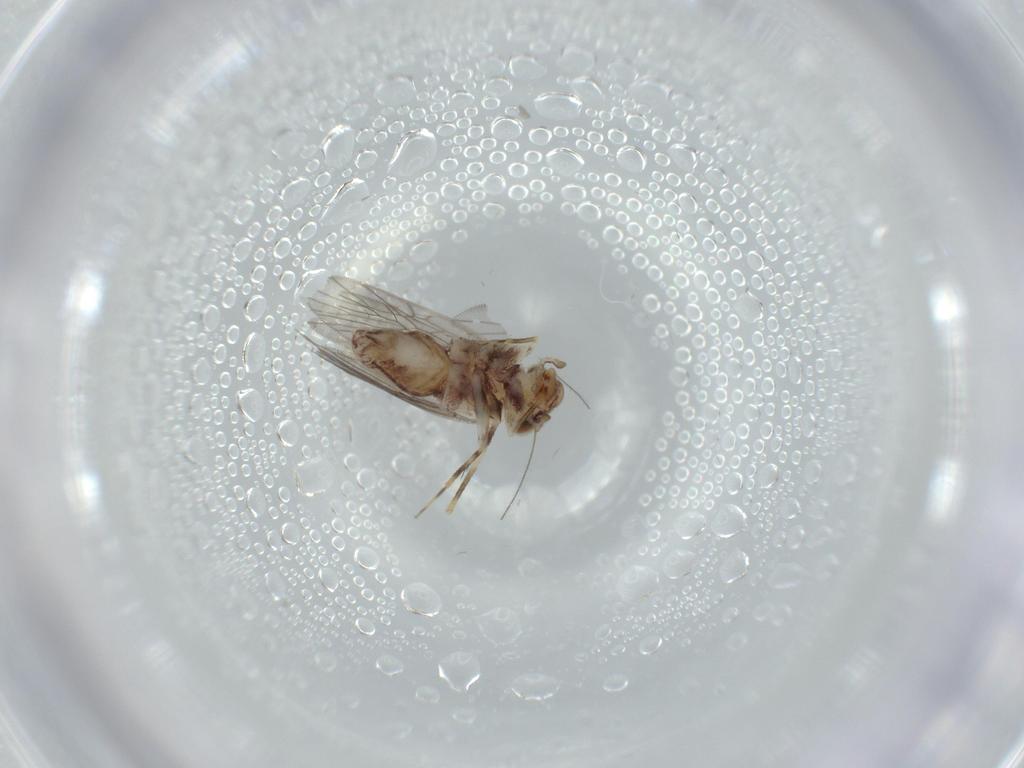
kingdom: Animalia
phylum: Arthropoda
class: Insecta
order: Psocodea
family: Lepidopsocidae
